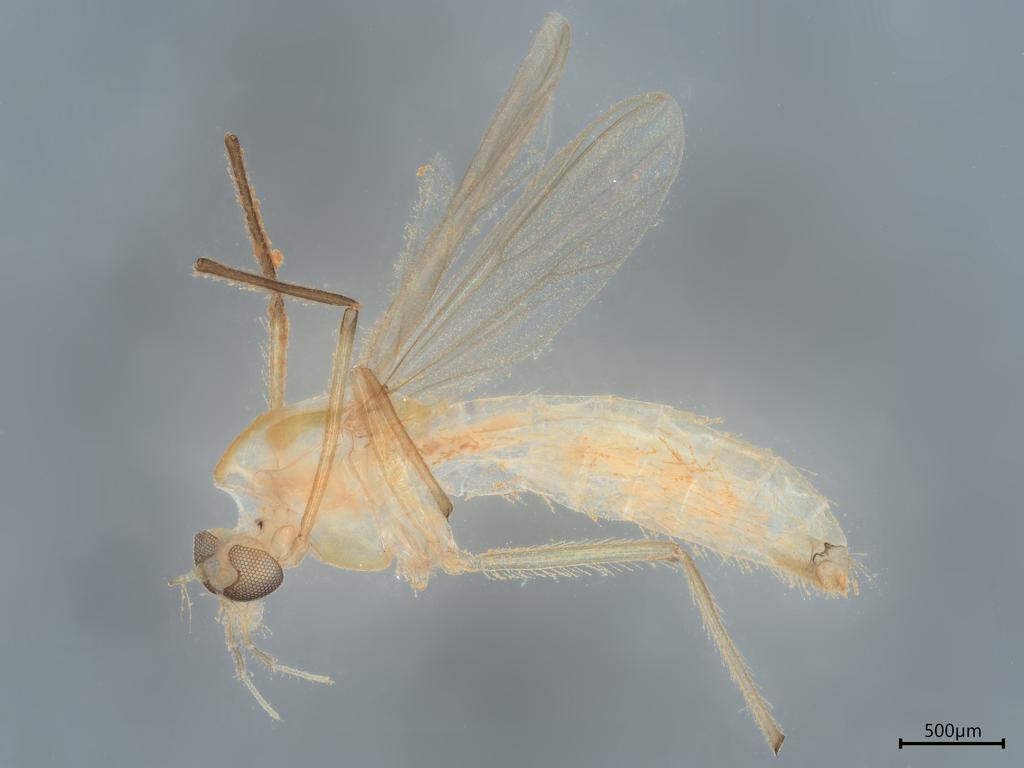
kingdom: Animalia
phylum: Arthropoda
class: Insecta
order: Diptera
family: Chironomidae
